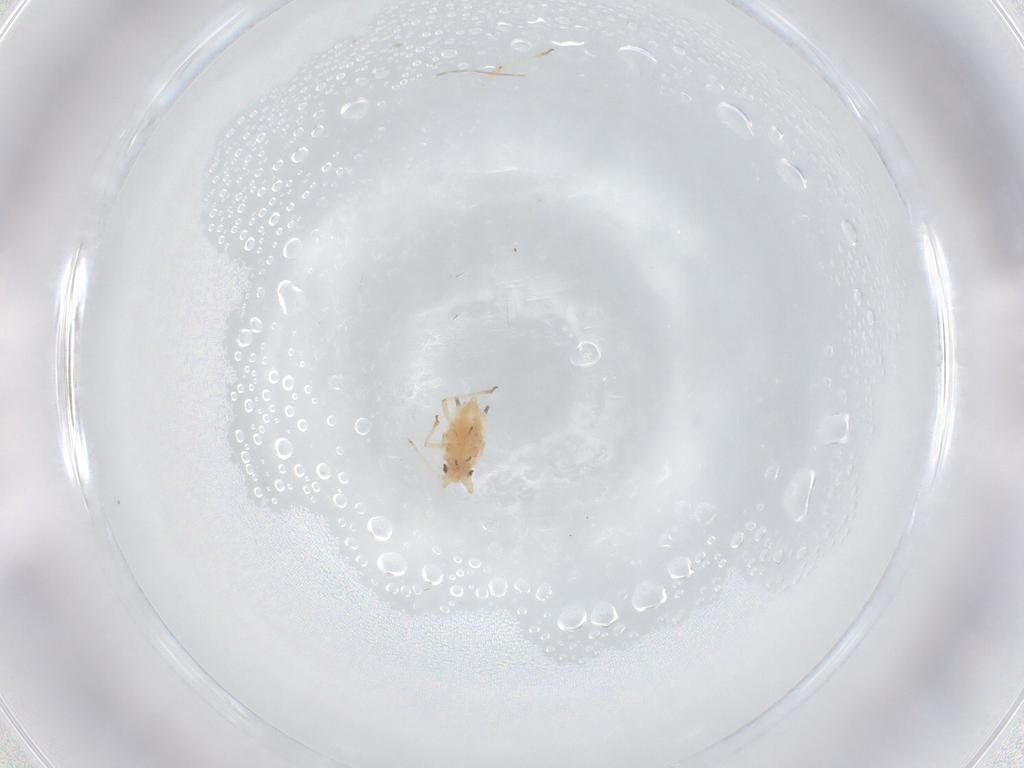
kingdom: Animalia
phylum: Arthropoda
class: Insecta
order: Hemiptera
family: Aphididae
